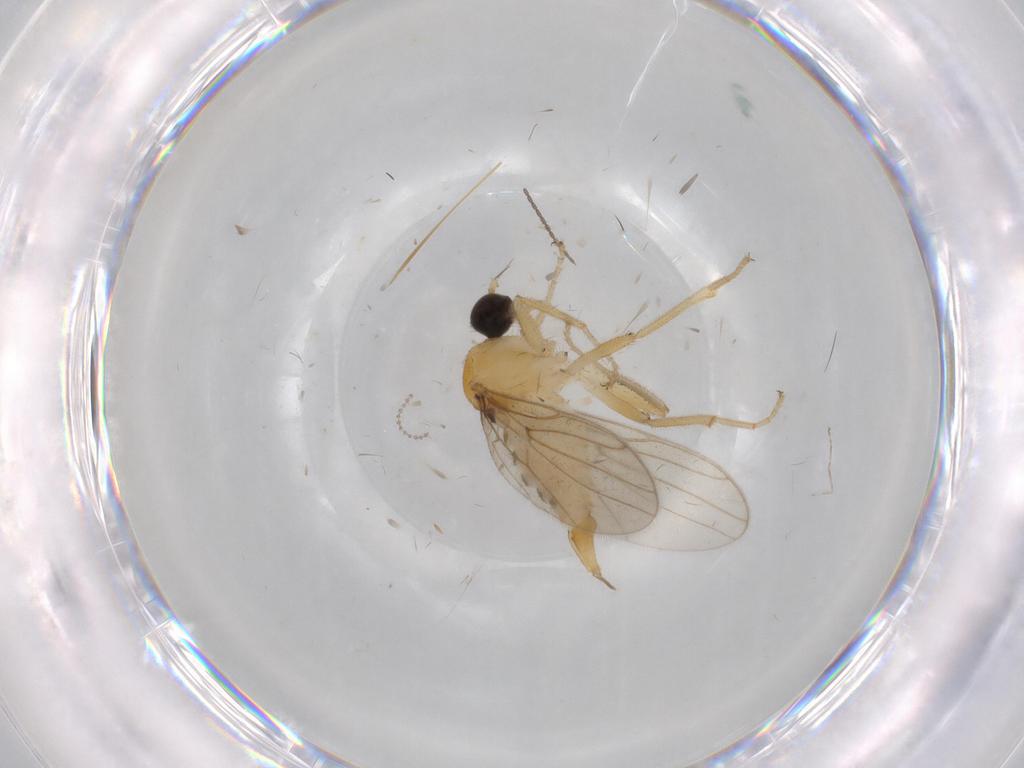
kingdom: Animalia
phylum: Arthropoda
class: Insecta
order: Diptera
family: Hybotidae
